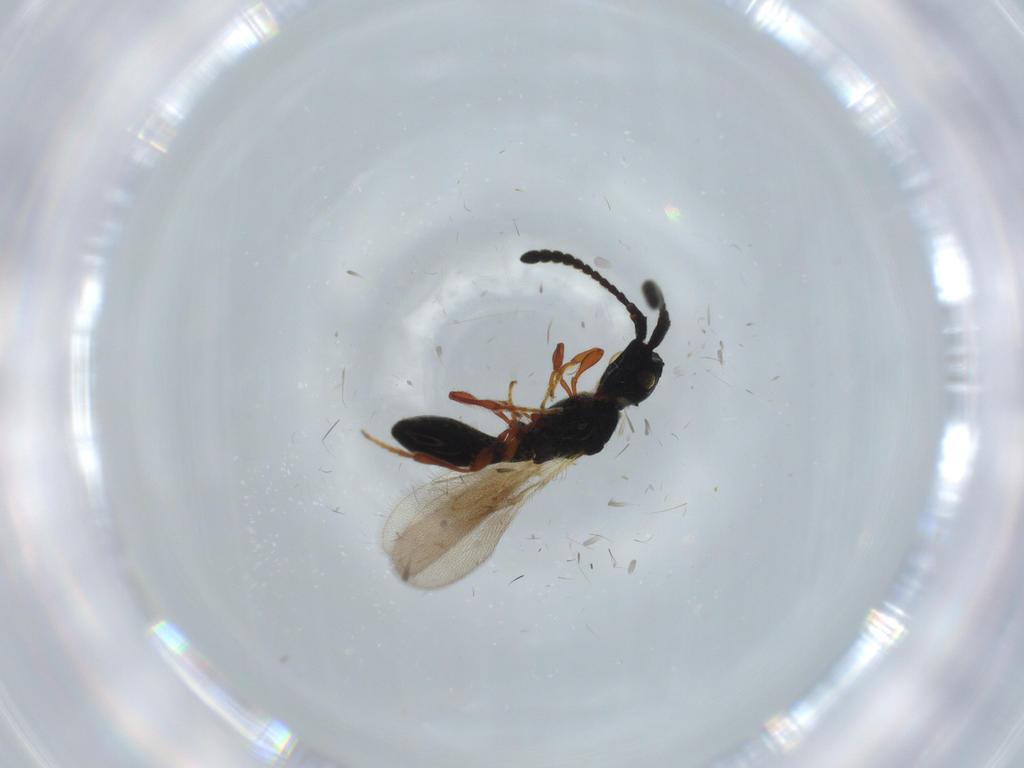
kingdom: Animalia
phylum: Arthropoda
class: Insecta
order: Hymenoptera
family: Diapriidae
